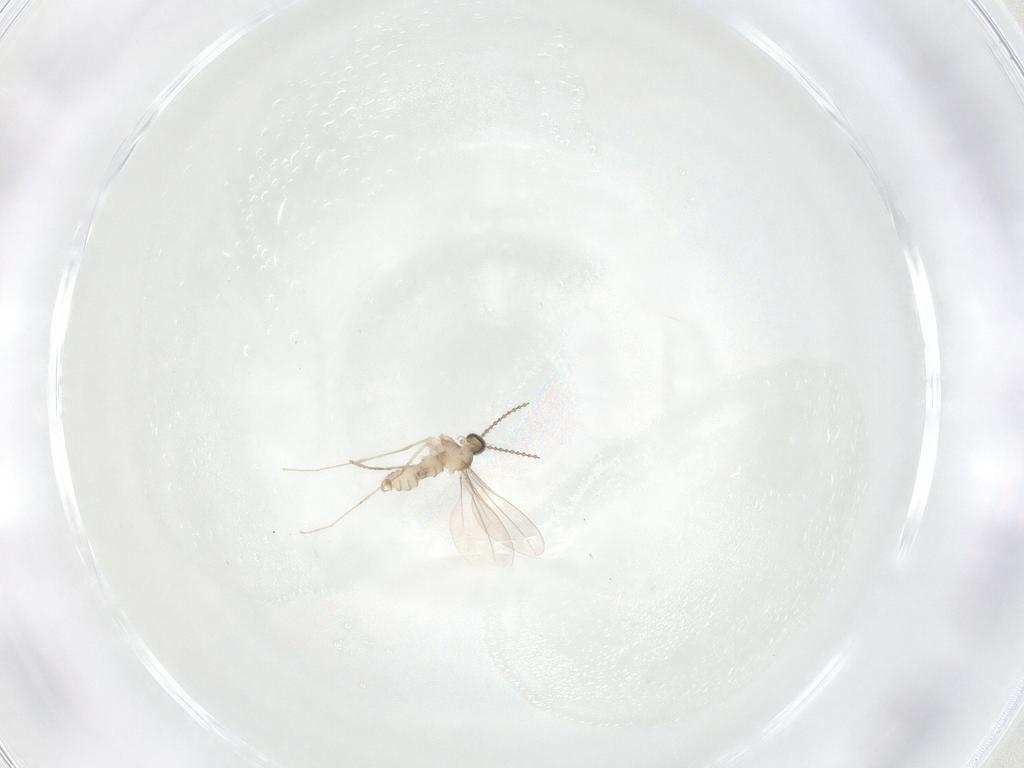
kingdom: Animalia
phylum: Arthropoda
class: Insecta
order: Diptera
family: Cecidomyiidae
